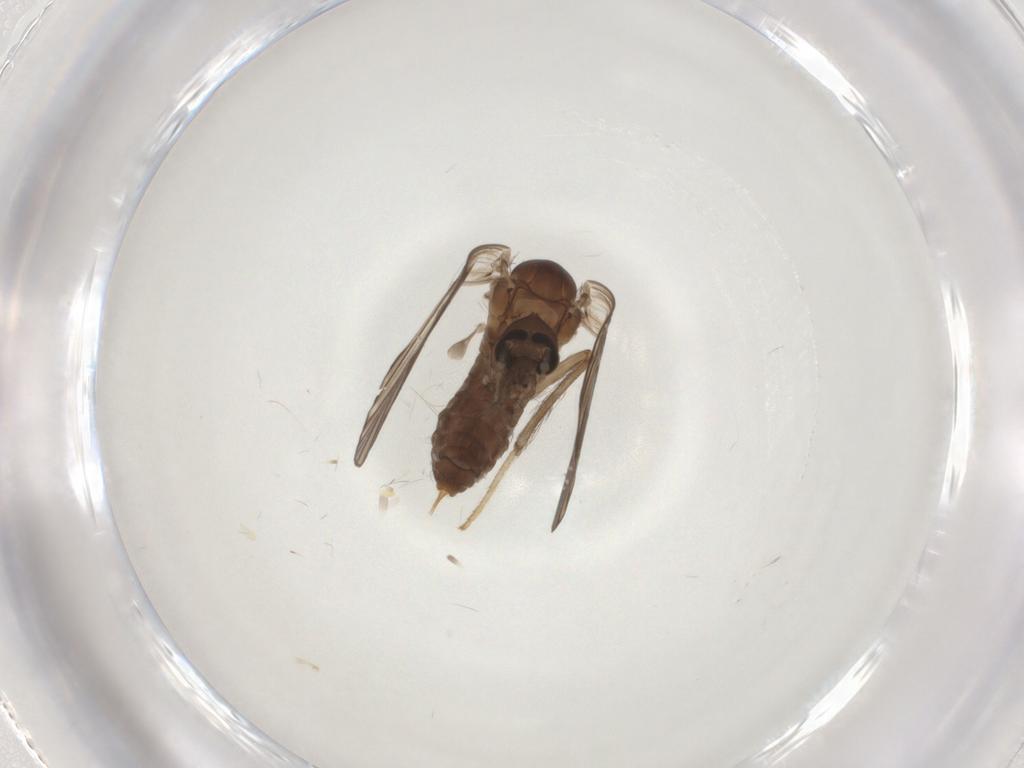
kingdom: Animalia
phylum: Arthropoda
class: Insecta
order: Diptera
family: Psychodidae
